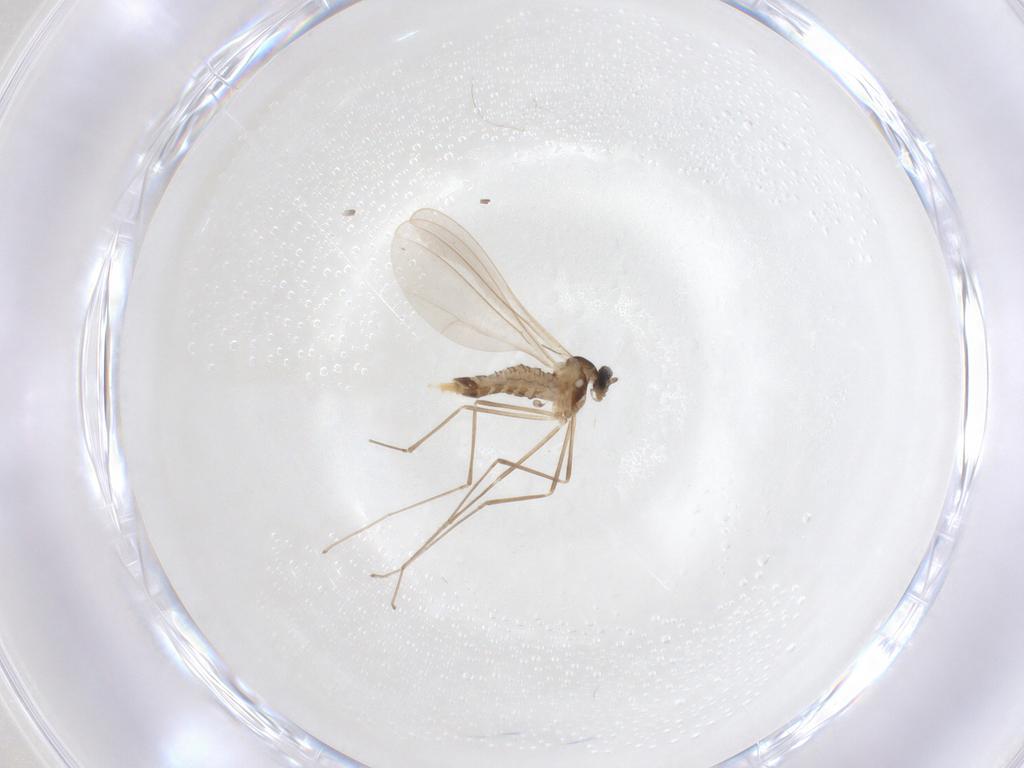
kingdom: Animalia
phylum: Arthropoda
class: Insecta
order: Diptera
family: Cecidomyiidae
